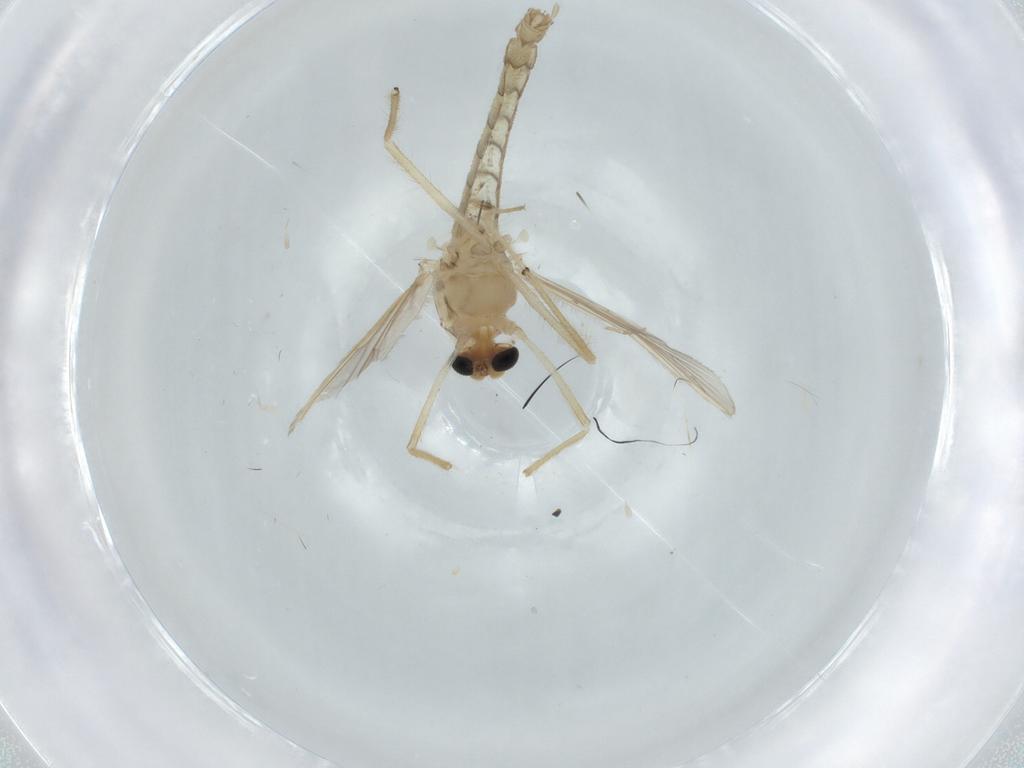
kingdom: Animalia
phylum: Arthropoda
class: Insecta
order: Diptera
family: Chironomidae
